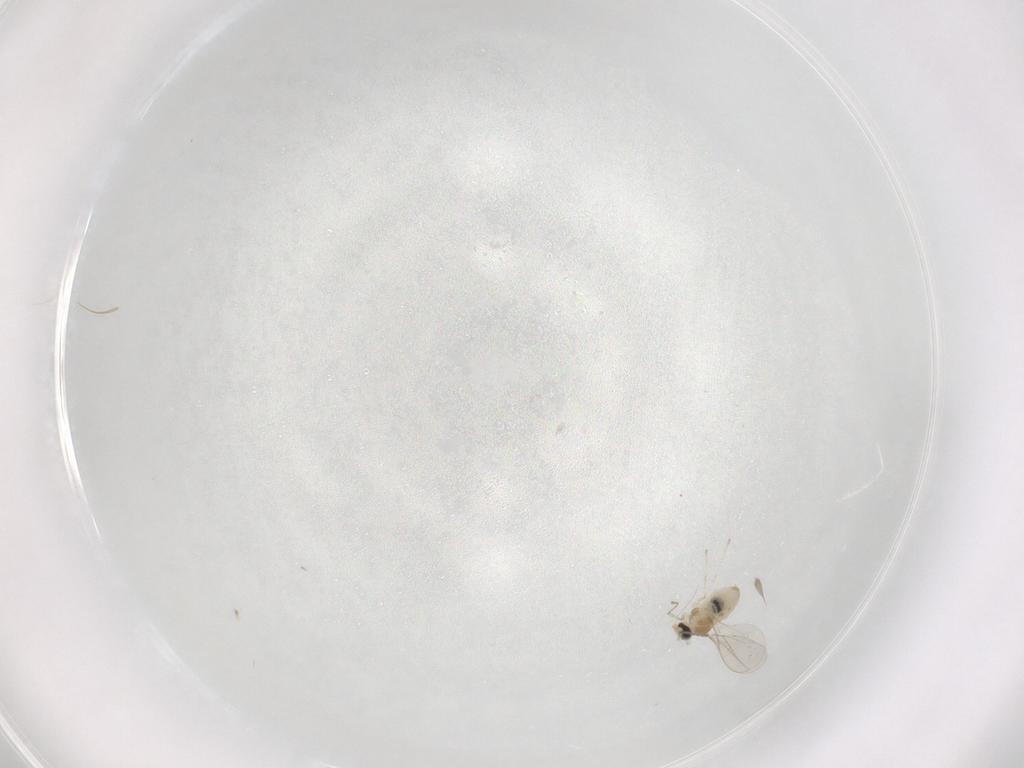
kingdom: Animalia
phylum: Arthropoda
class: Insecta
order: Diptera
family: Cecidomyiidae
